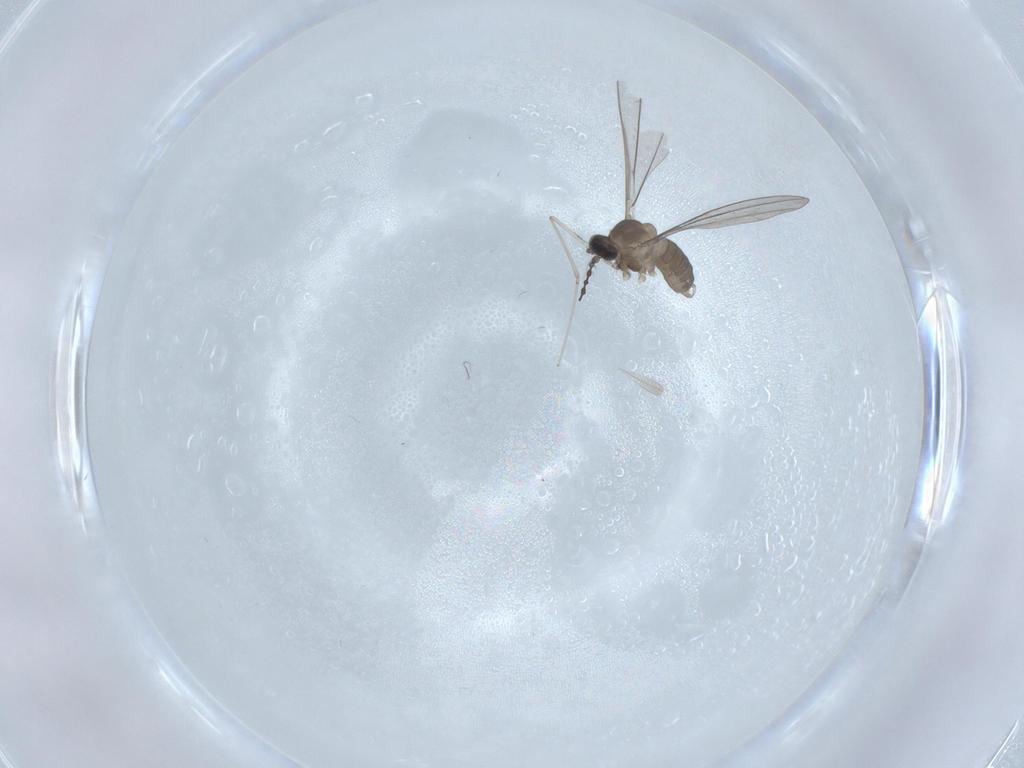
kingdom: Animalia
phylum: Arthropoda
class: Insecta
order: Diptera
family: Cecidomyiidae
